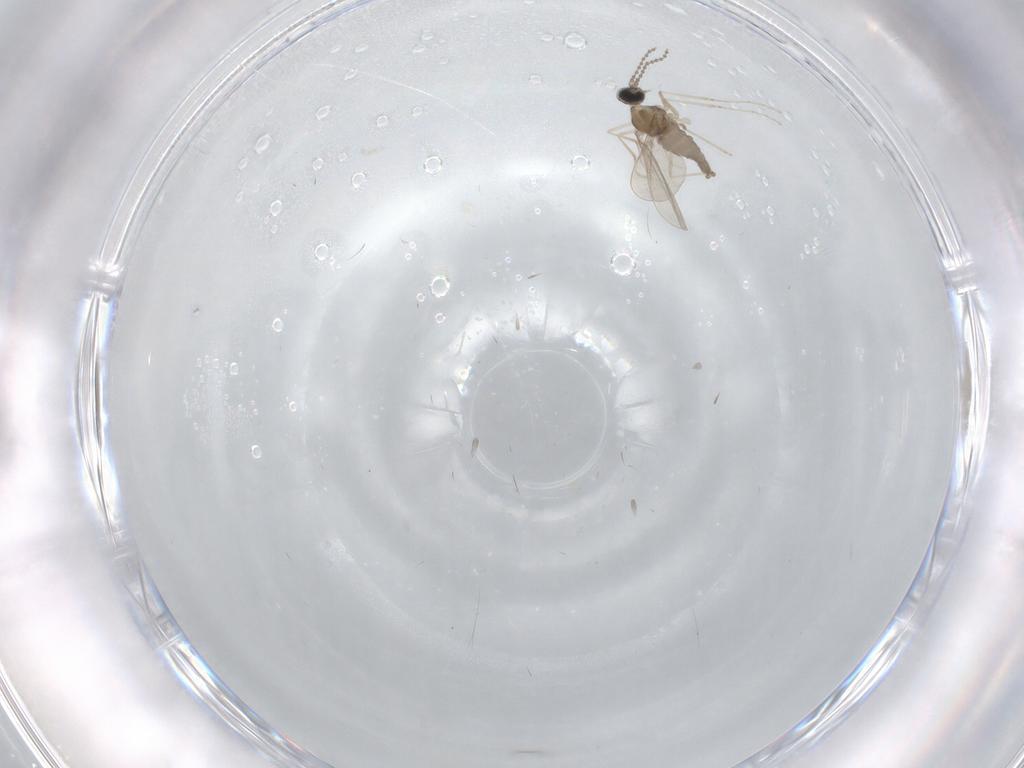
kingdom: Animalia
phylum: Arthropoda
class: Insecta
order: Diptera
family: Cecidomyiidae
